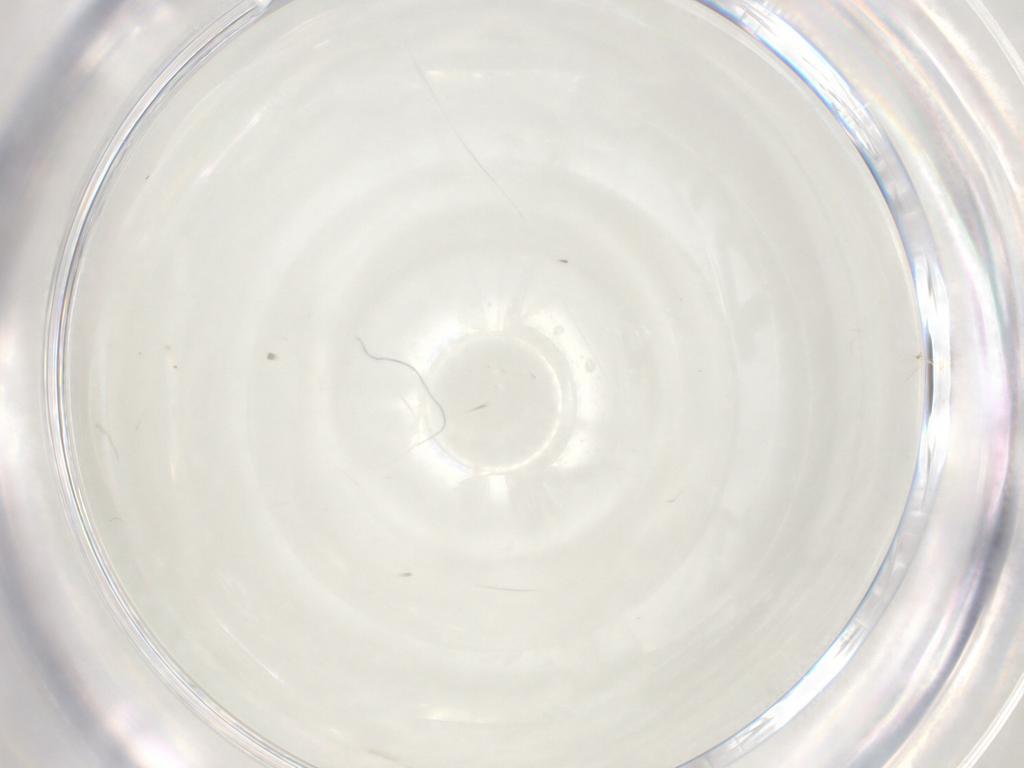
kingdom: Animalia
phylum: Arthropoda
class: Insecta
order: Diptera
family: Chironomidae
